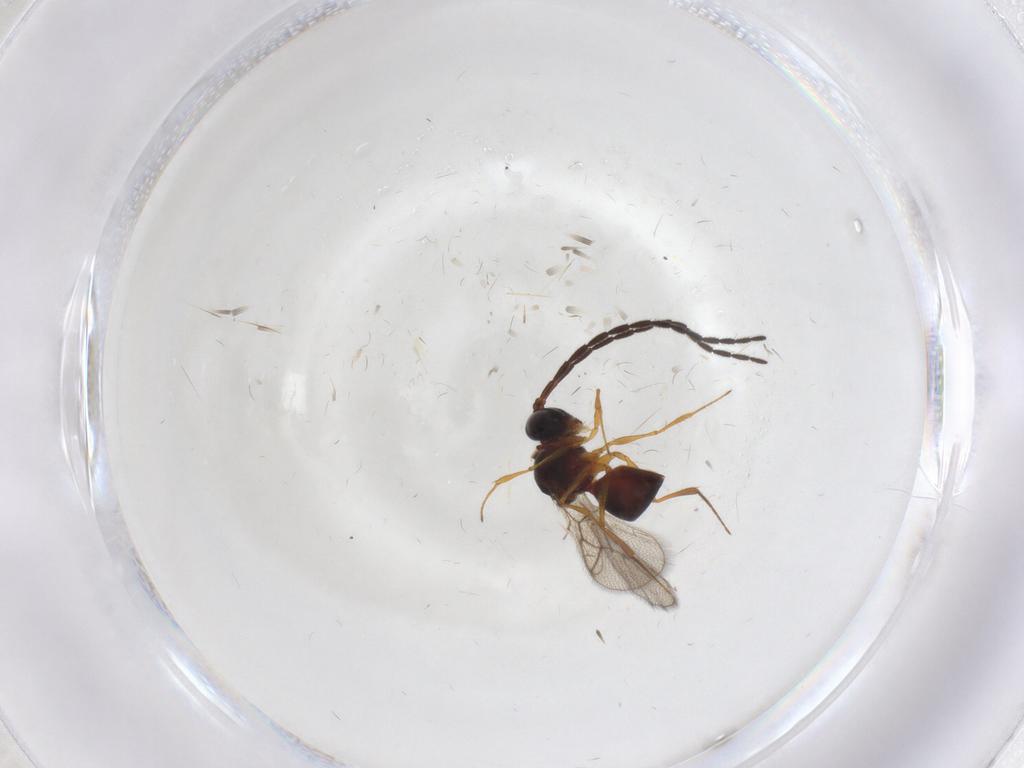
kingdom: Animalia
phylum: Arthropoda
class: Insecta
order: Hymenoptera
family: Figitidae
